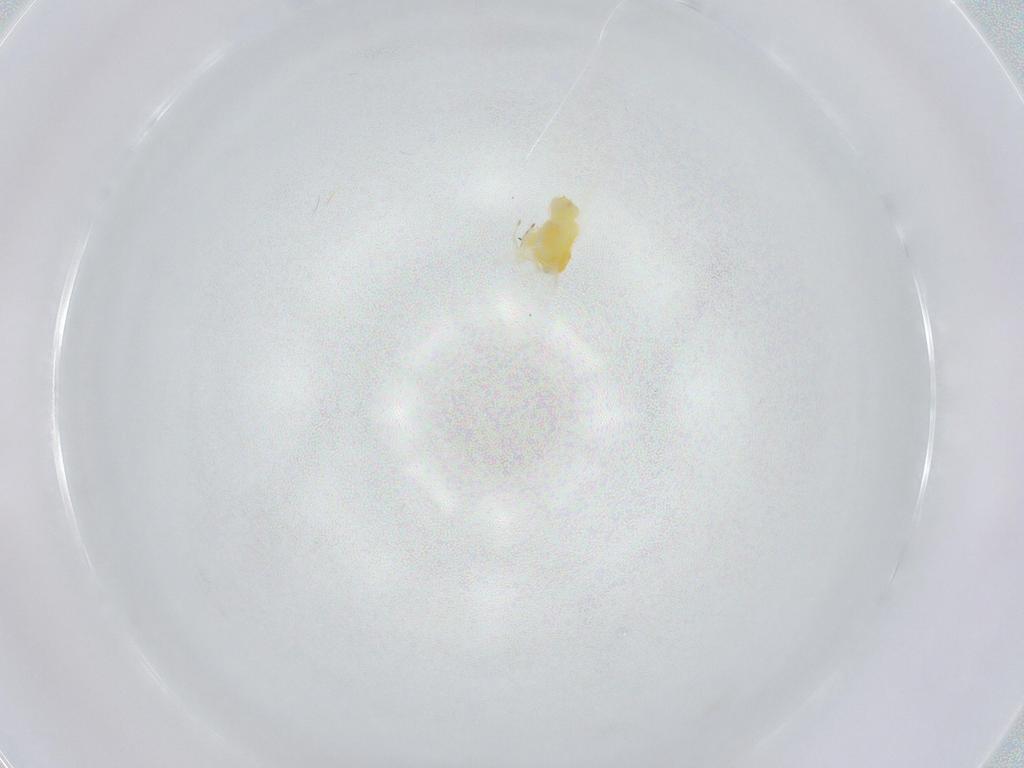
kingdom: Animalia
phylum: Arthropoda
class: Insecta
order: Hemiptera
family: Aleyrodidae
